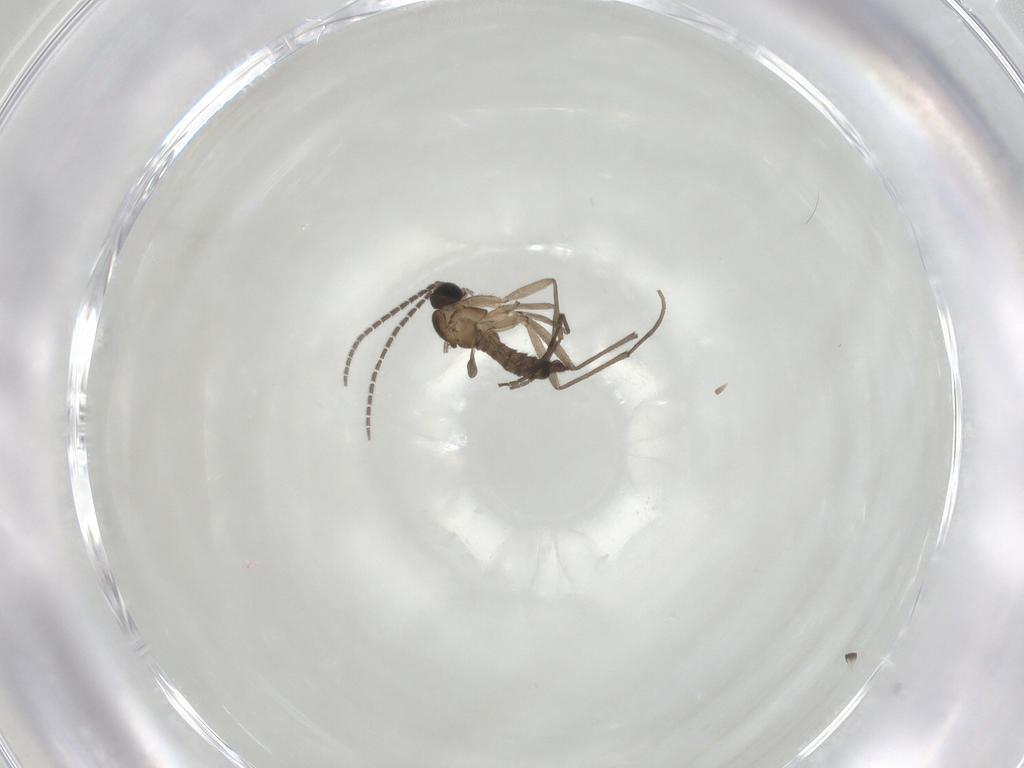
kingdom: Animalia
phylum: Arthropoda
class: Insecta
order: Diptera
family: Sciaridae
